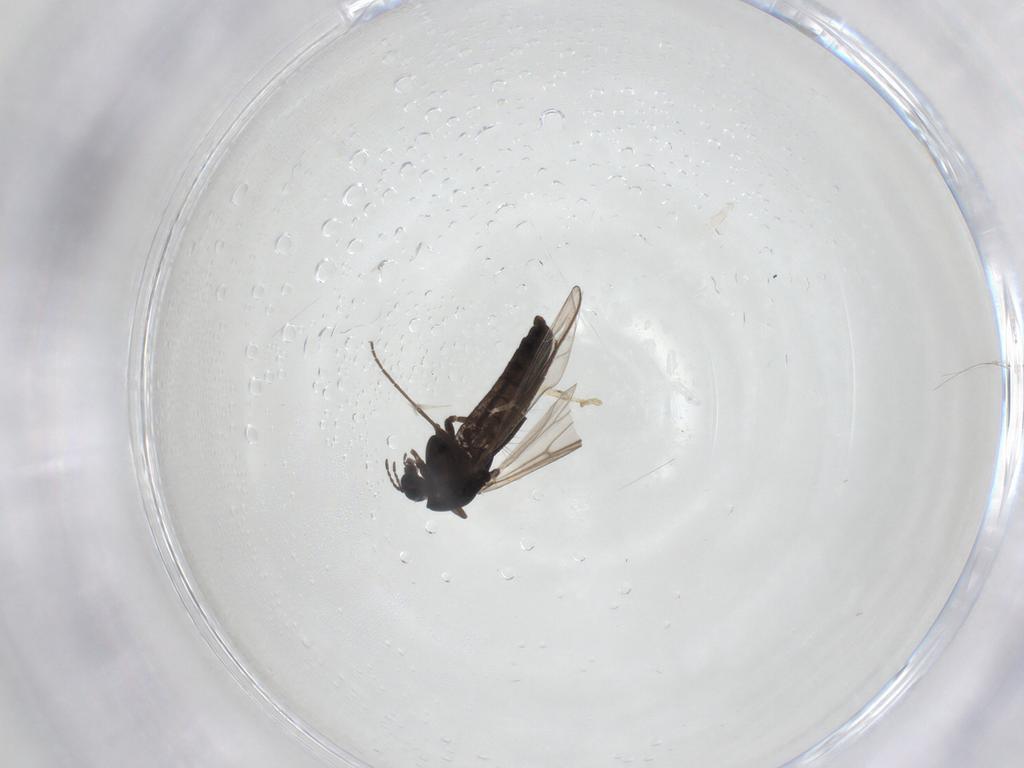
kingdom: Animalia
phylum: Arthropoda
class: Insecta
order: Diptera
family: Chironomidae
